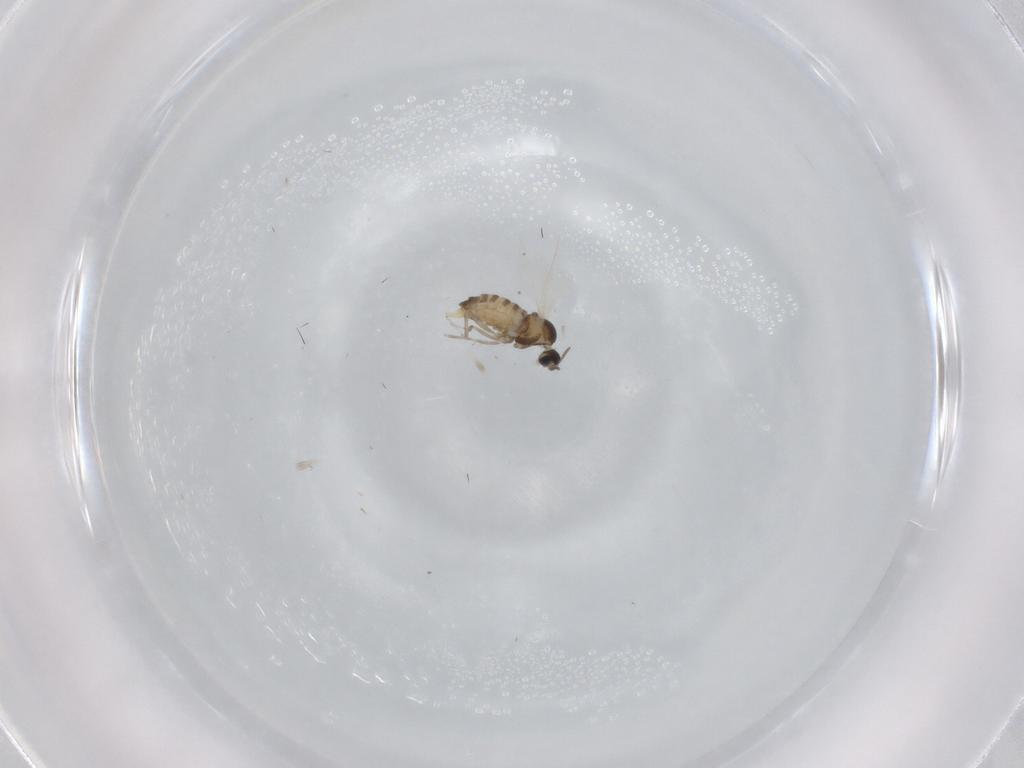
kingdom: Animalia
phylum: Arthropoda
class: Insecta
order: Diptera
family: Cecidomyiidae
